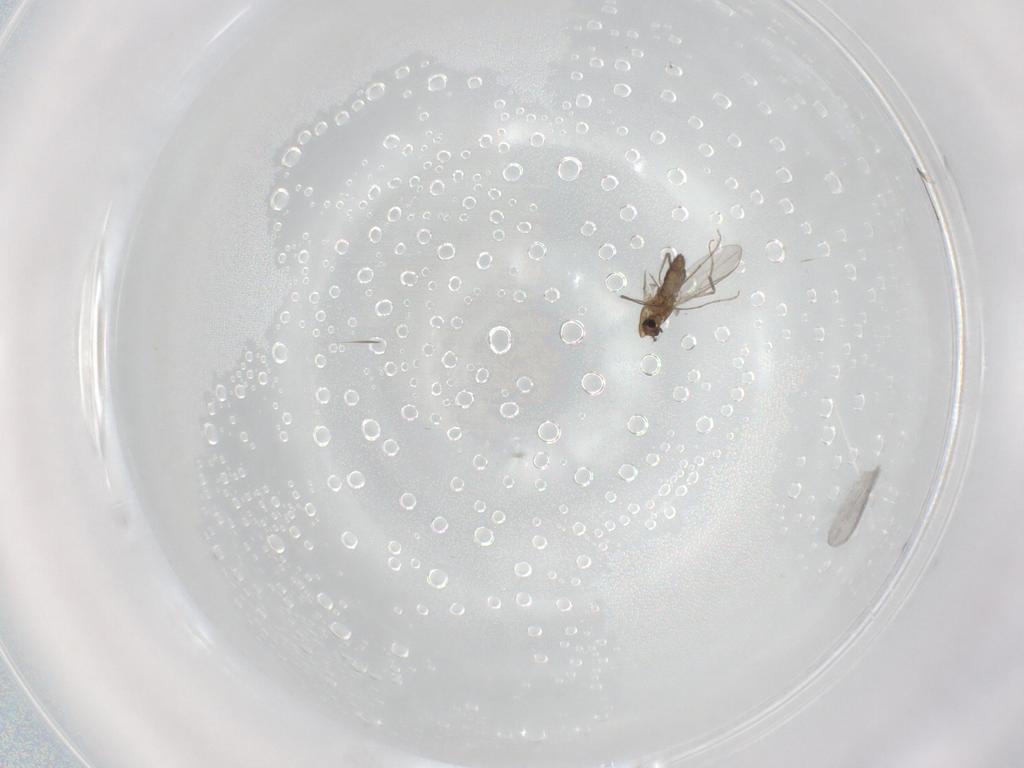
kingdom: Animalia
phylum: Arthropoda
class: Insecta
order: Diptera
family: Chironomidae
